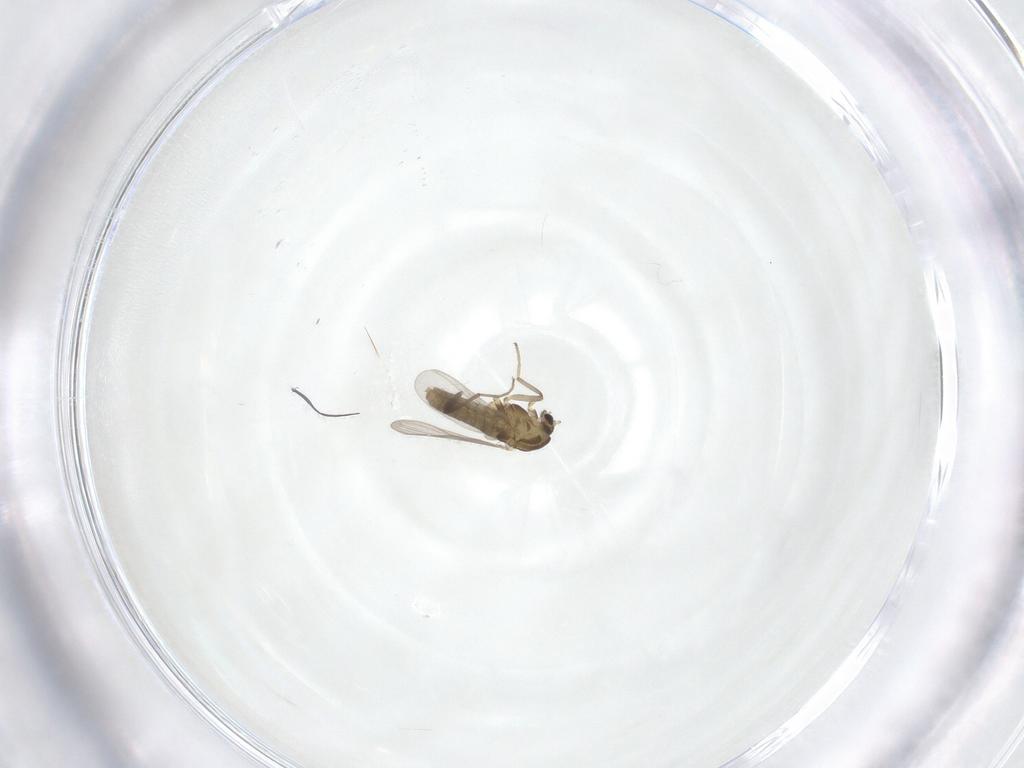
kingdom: Animalia
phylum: Arthropoda
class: Insecta
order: Diptera
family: Chironomidae
